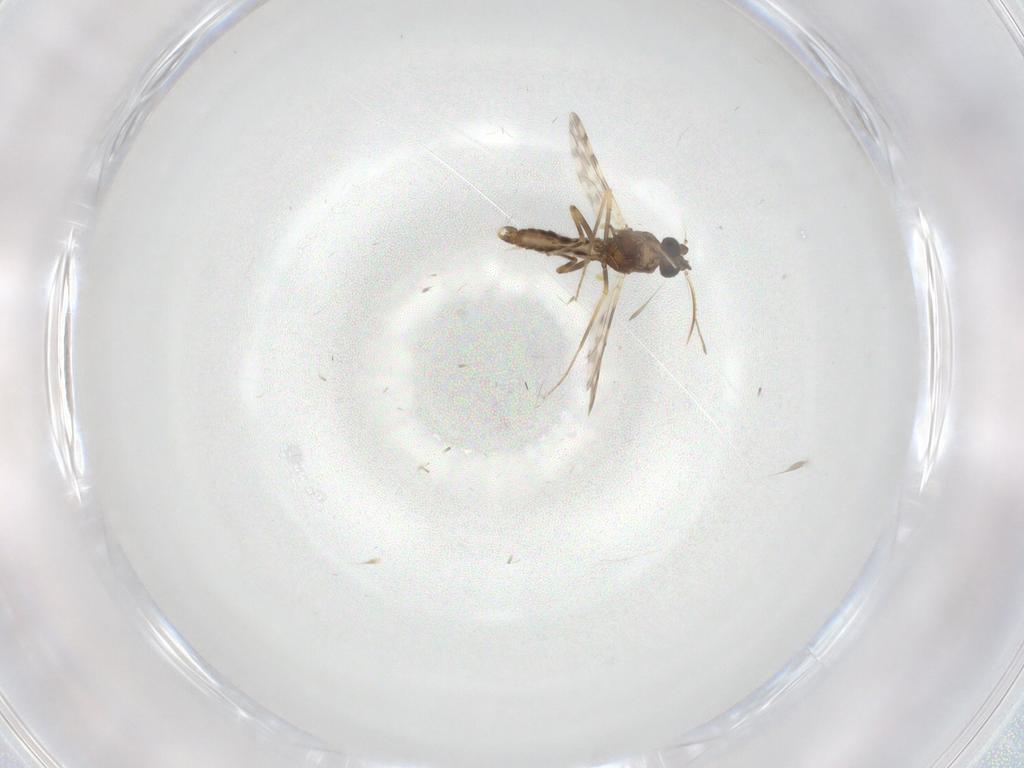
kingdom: Animalia
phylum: Arthropoda
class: Insecta
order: Diptera
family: Ceratopogonidae
